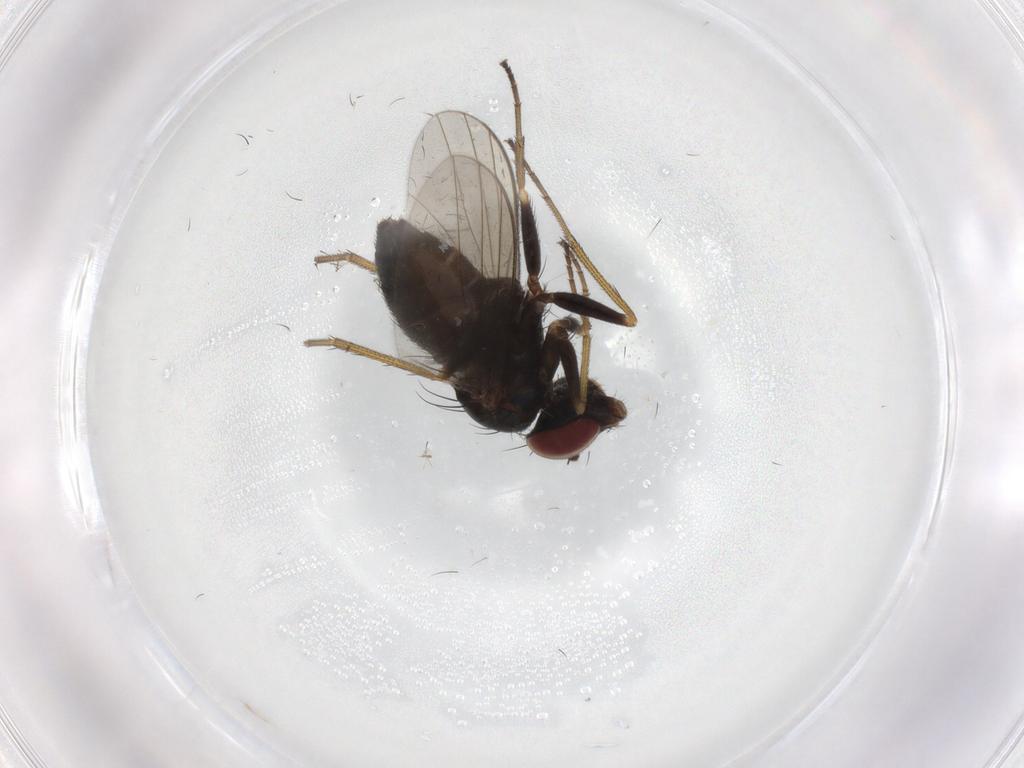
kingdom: Animalia
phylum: Arthropoda
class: Insecta
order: Diptera
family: Dolichopodidae
